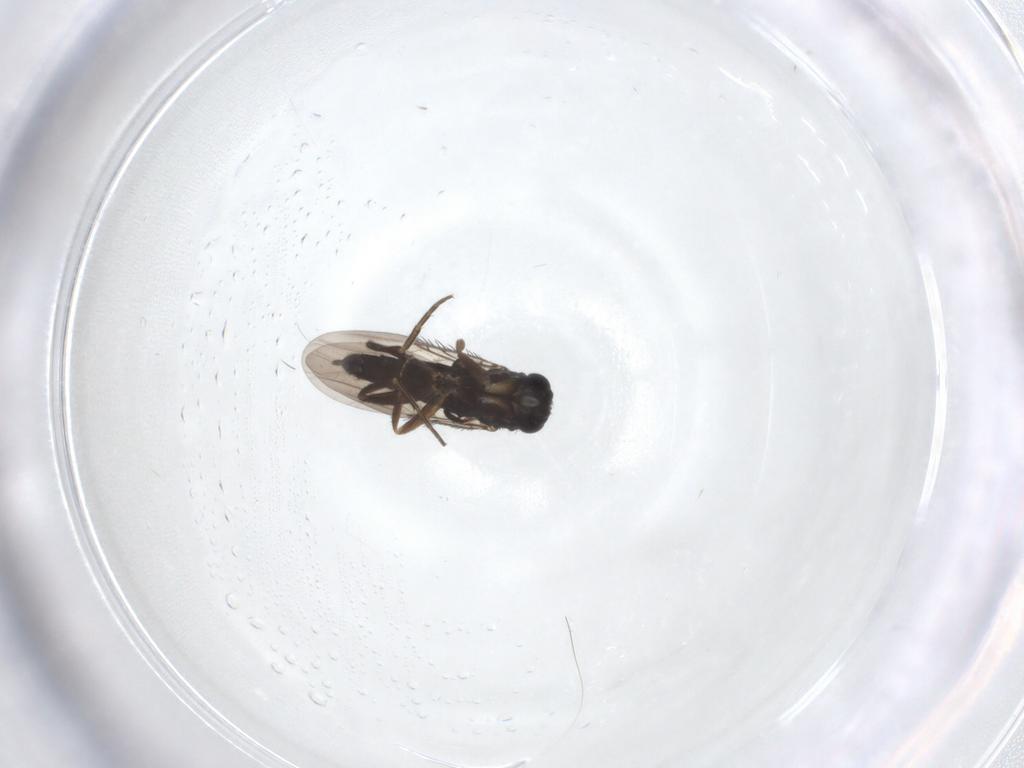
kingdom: Animalia
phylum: Arthropoda
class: Insecta
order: Diptera
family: Phoridae
